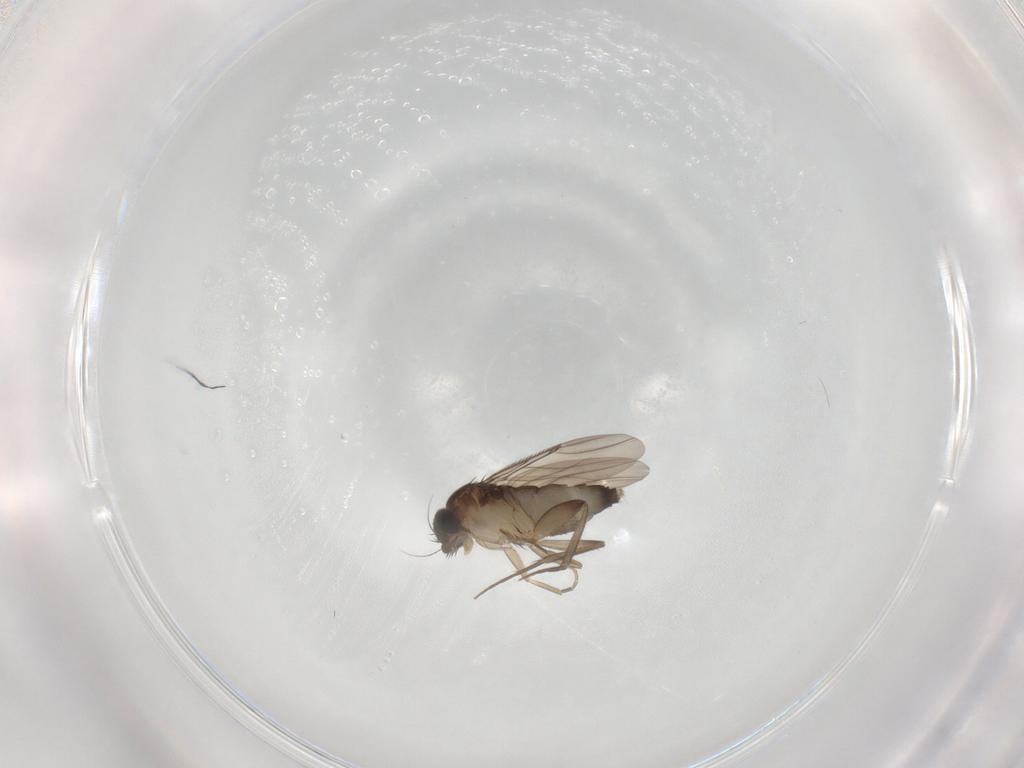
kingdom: Animalia
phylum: Arthropoda
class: Insecta
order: Diptera
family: Phoridae
